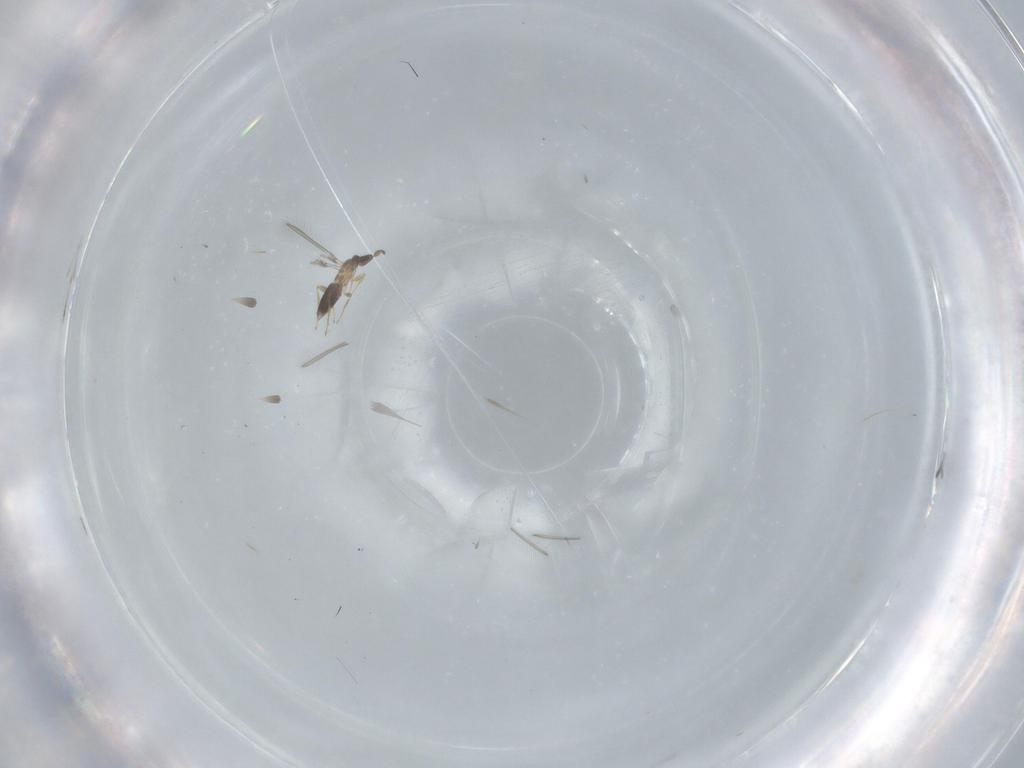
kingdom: Animalia
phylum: Arthropoda
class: Insecta
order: Hymenoptera
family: Mymaridae
